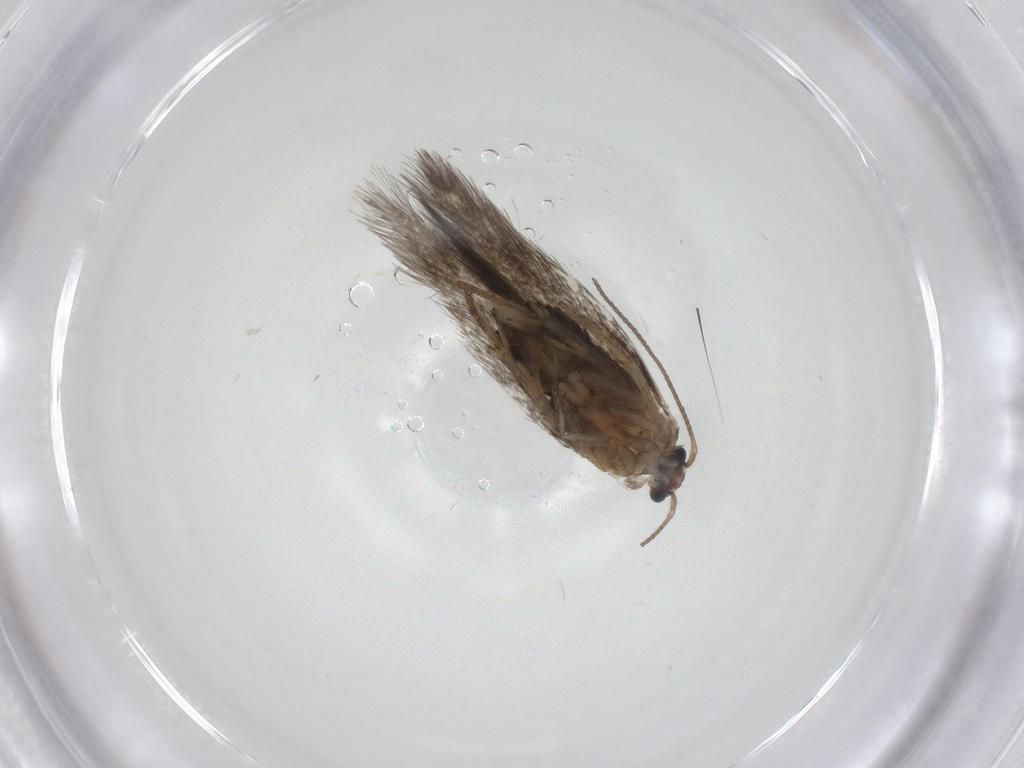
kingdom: Animalia
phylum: Arthropoda
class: Insecta
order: Lepidoptera
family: Nepticulidae
